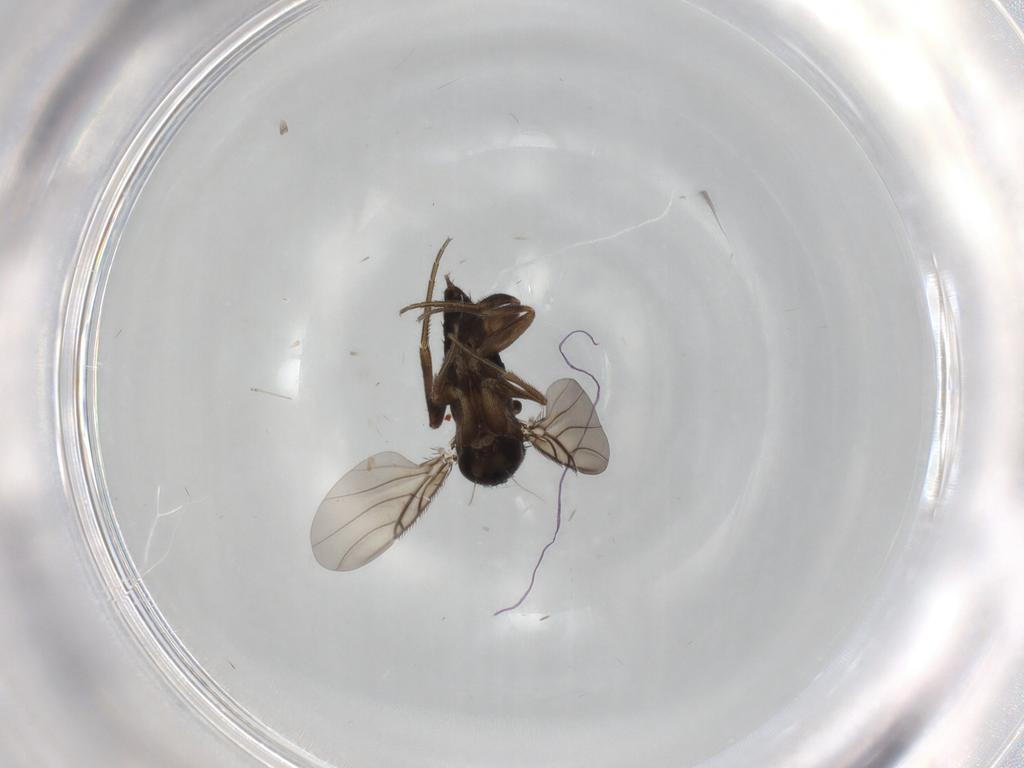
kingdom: Animalia
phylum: Arthropoda
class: Insecta
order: Diptera
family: Phoridae
